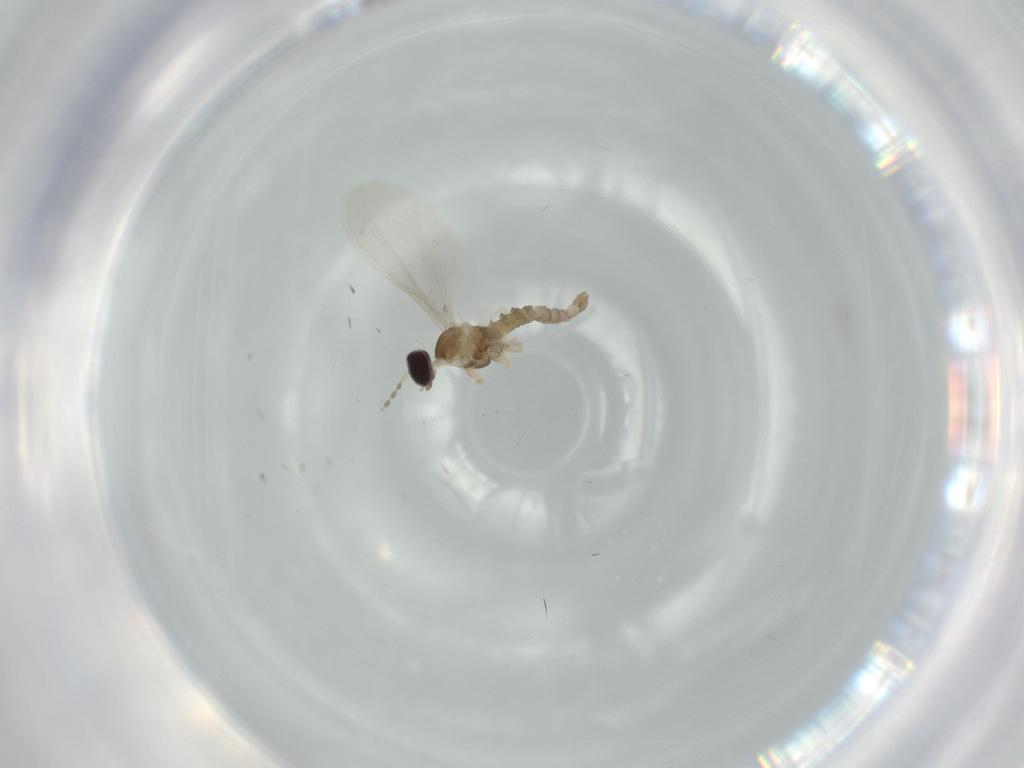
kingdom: Animalia
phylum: Arthropoda
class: Insecta
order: Diptera
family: Cecidomyiidae
